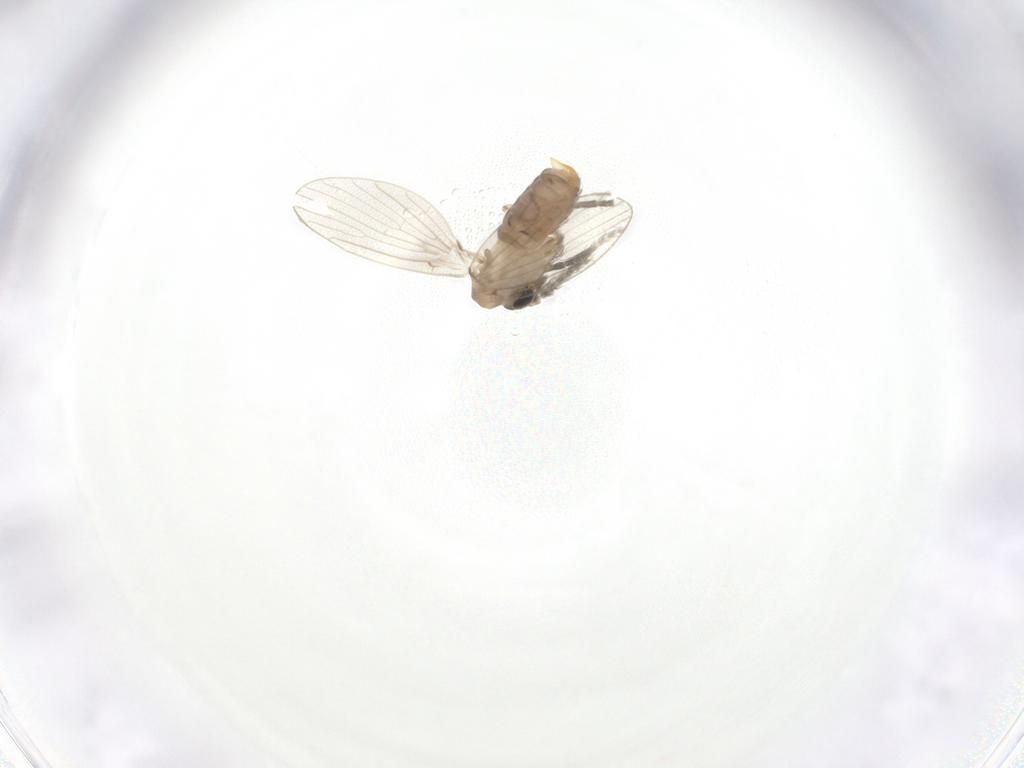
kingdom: Animalia
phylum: Arthropoda
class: Insecta
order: Diptera
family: Psychodidae
